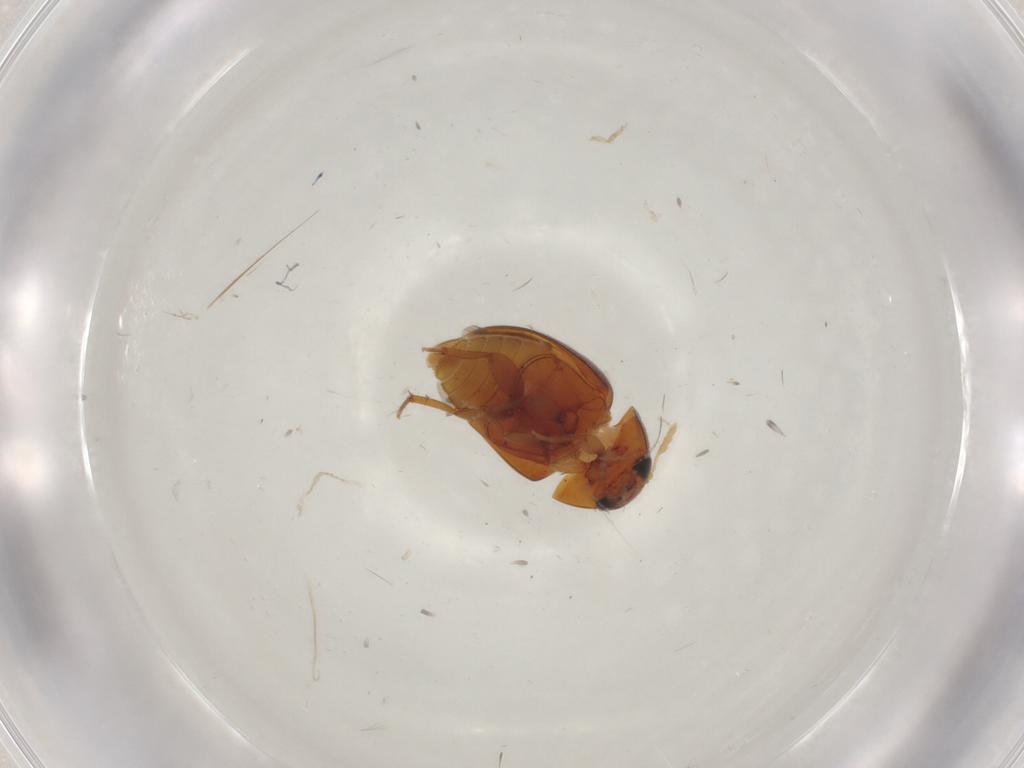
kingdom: Animalia
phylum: Arthropoda
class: Insecta
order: Coleoptera
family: Phalacridae
